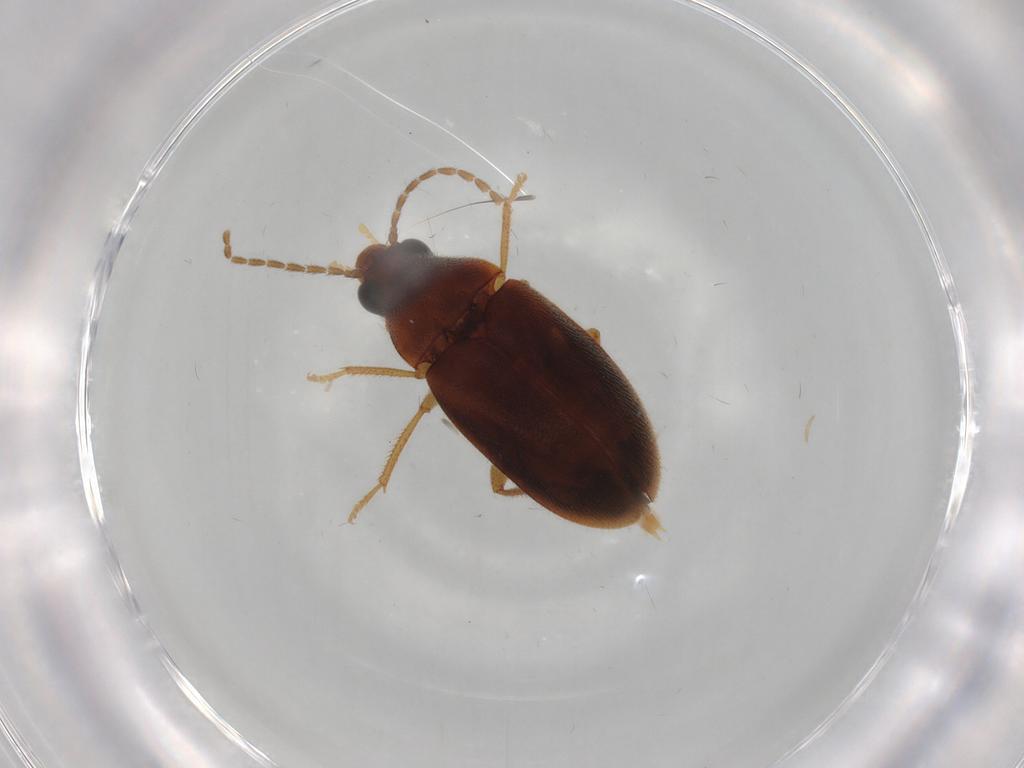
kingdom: Animalia
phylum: Arthropoda
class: Insecta
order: Coleoptera
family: Ptilodactylidae
